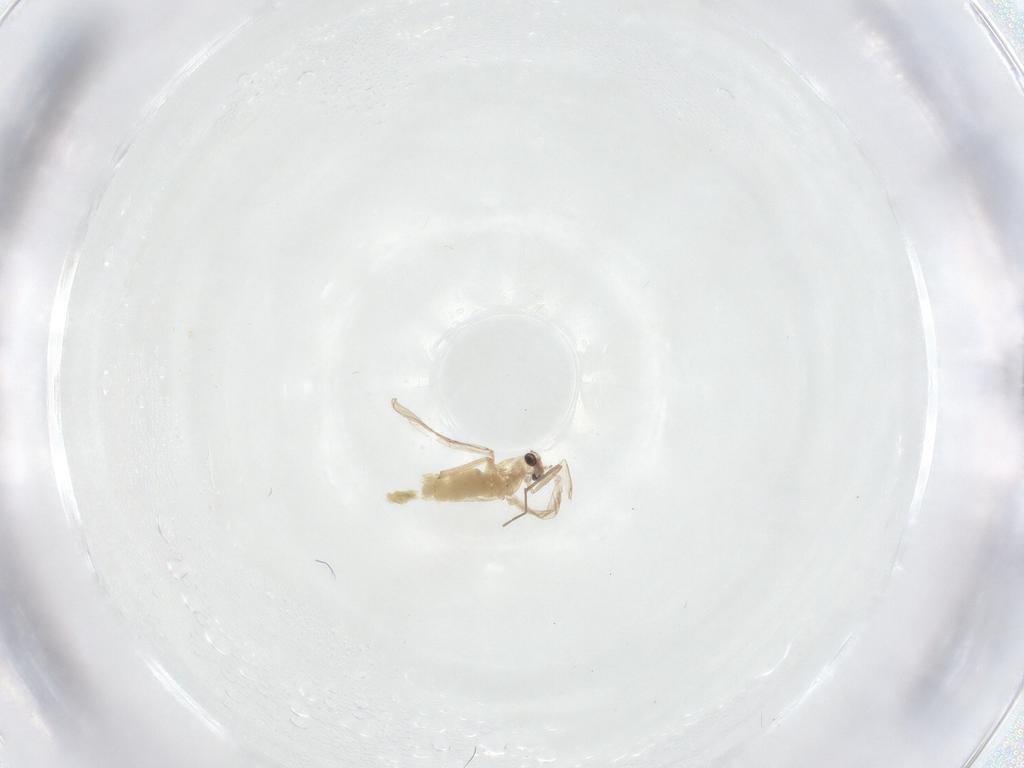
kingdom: Animalia
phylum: Arthropoda
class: Insecta
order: Diptera
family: Tachinidae
